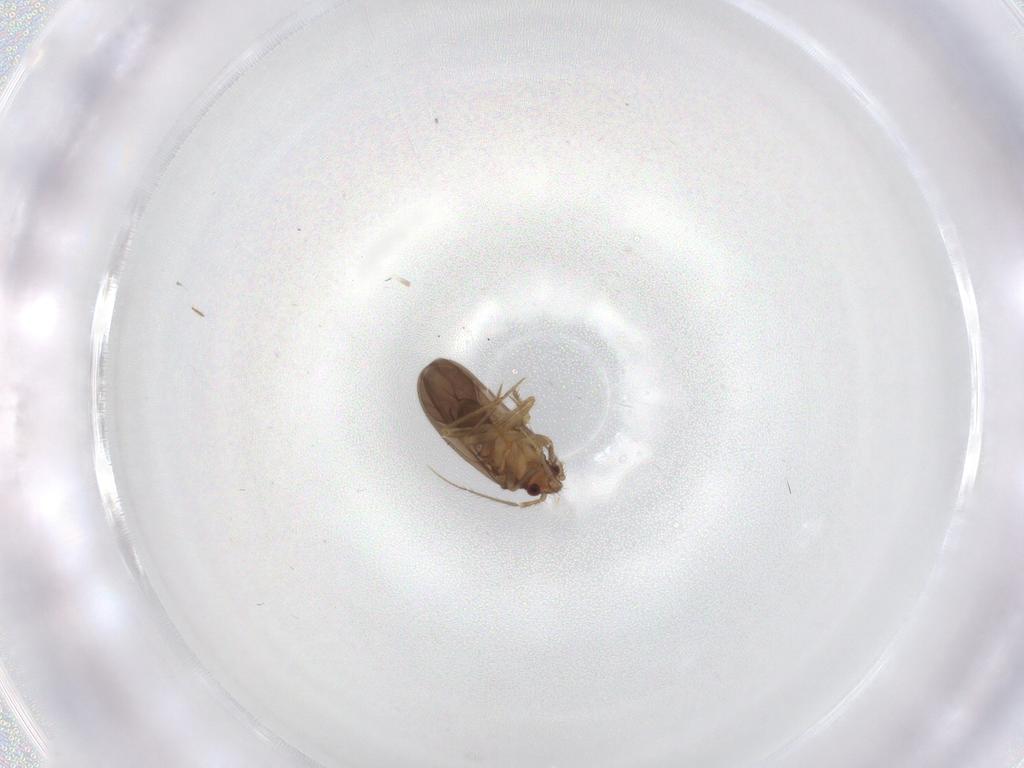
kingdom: Animalia
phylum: Arthropoda
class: Insecta
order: Hemiptera
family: Ceratocombidae
